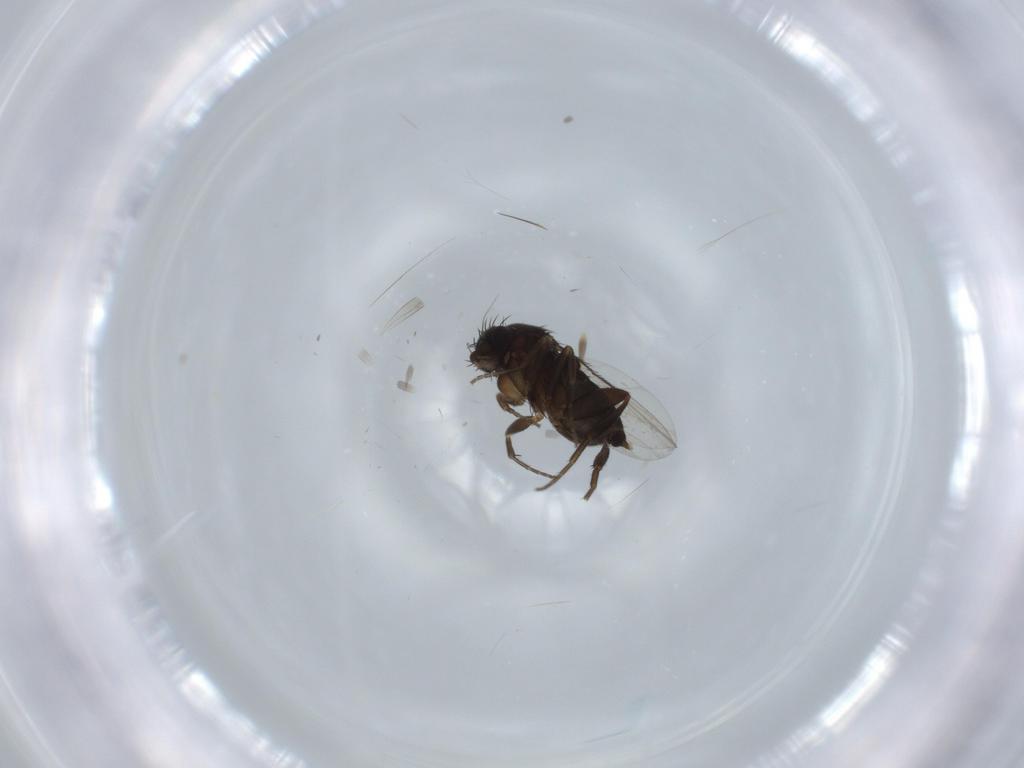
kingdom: Animalia
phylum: Arthropoda
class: Insecta
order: Diptera
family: Phoridae
